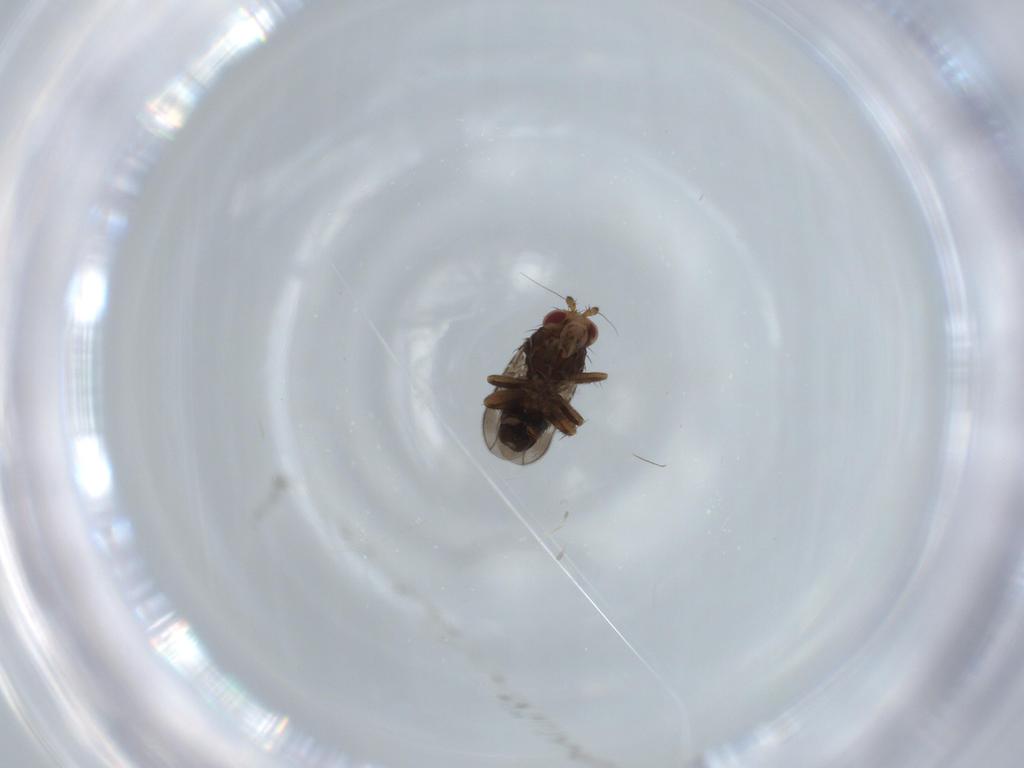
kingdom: Animalia
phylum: Arthropoda
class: Insecta
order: Diptera
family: Cecidomyiidae
